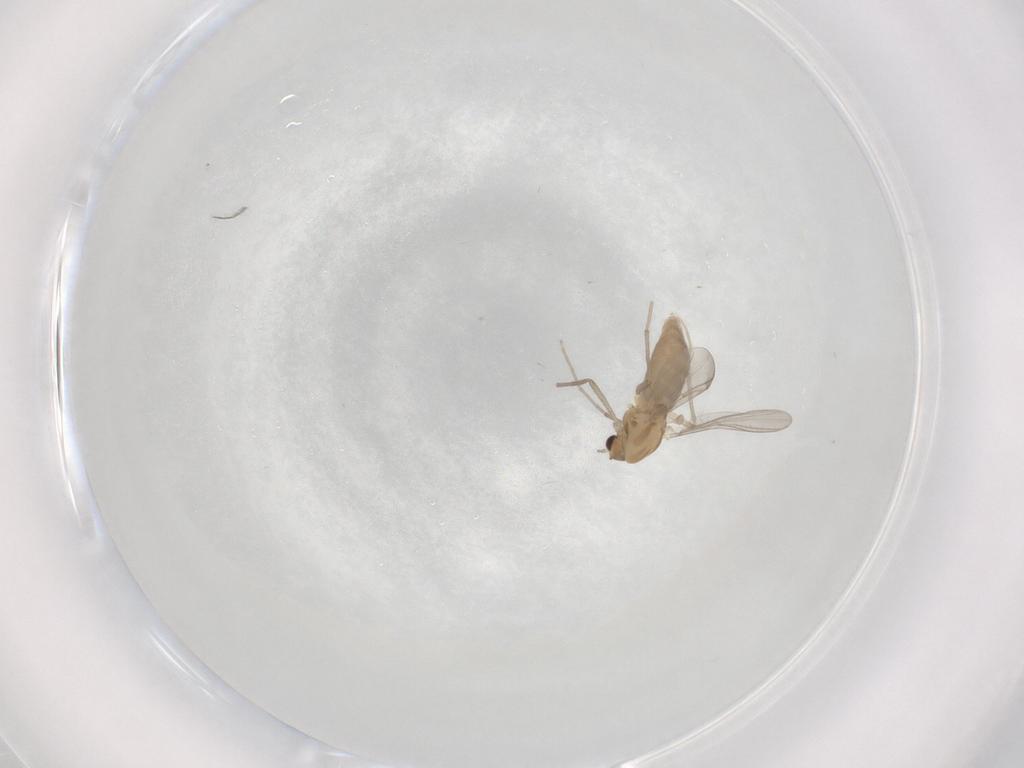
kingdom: Animalia
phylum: Arthropoda
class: Insecta
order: Diptera
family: Chironomidae
